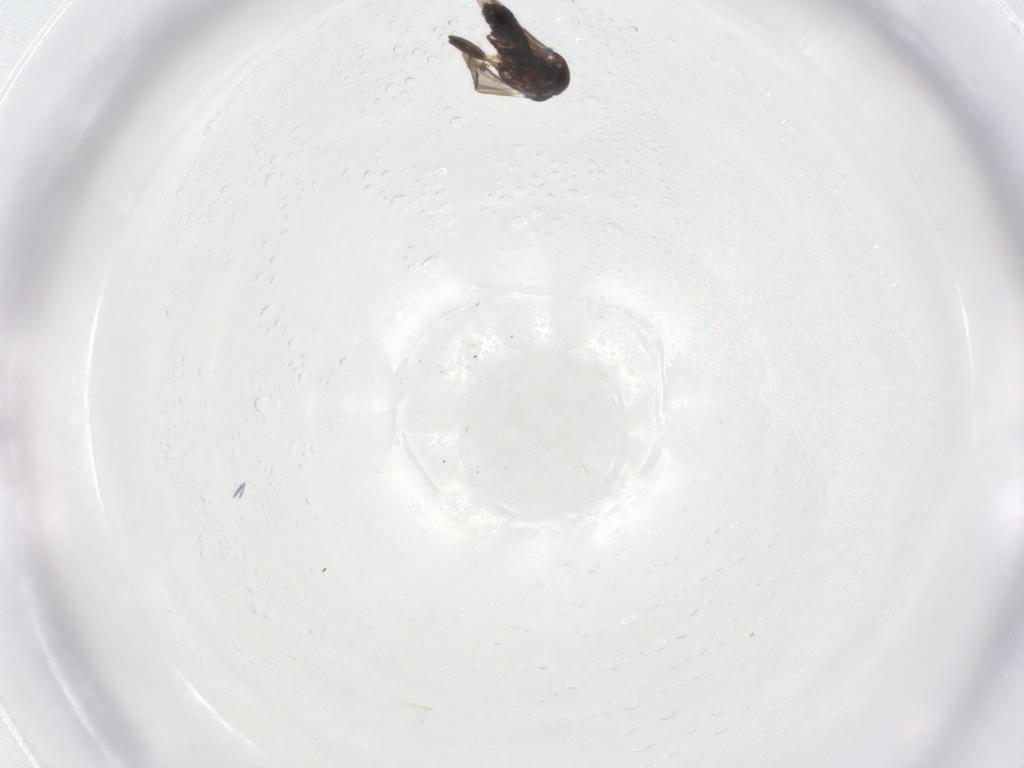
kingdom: Animalia
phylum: Arthropoda
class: Insecta
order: Diptera
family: Chironomidae
